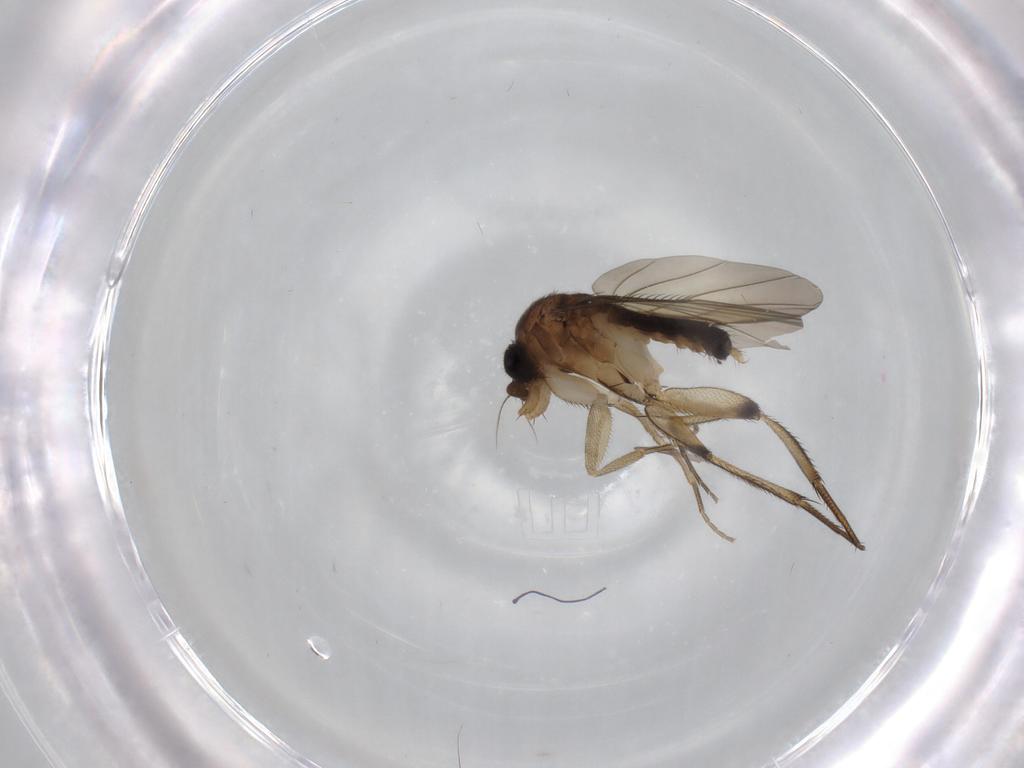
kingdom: Animalia
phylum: Arthropoda
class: Insecta
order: Diptera
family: Phoridae
